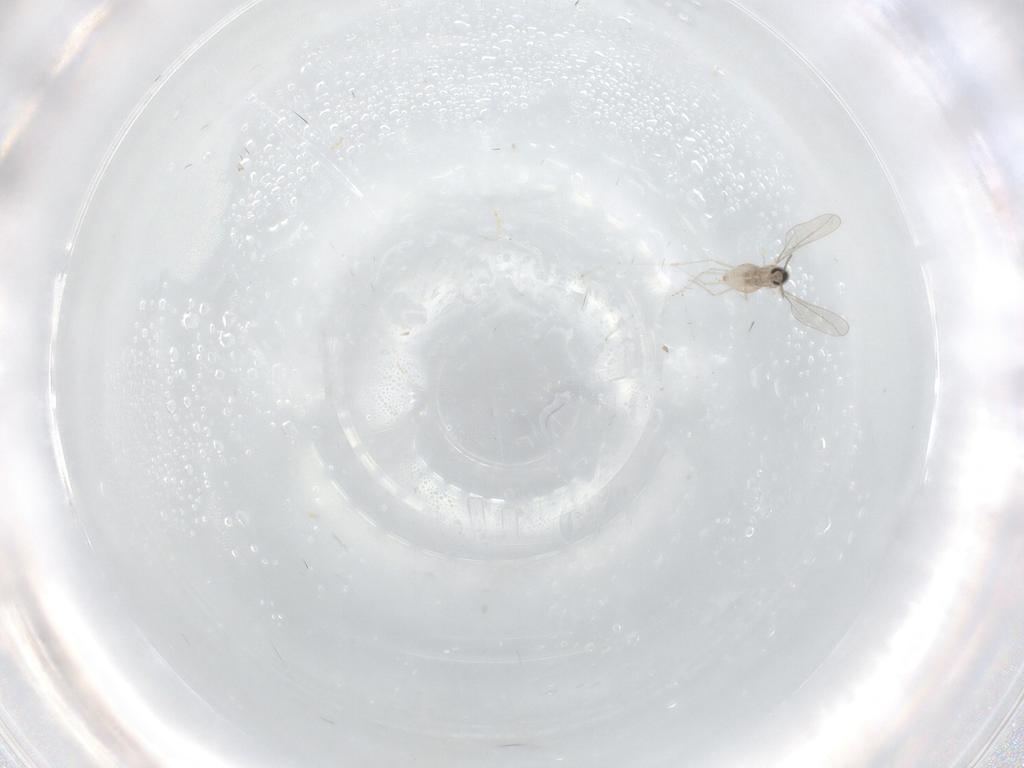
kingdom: Animalia
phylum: Arthropoda
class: Insecta
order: Diptera
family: Cecidomyiidae
